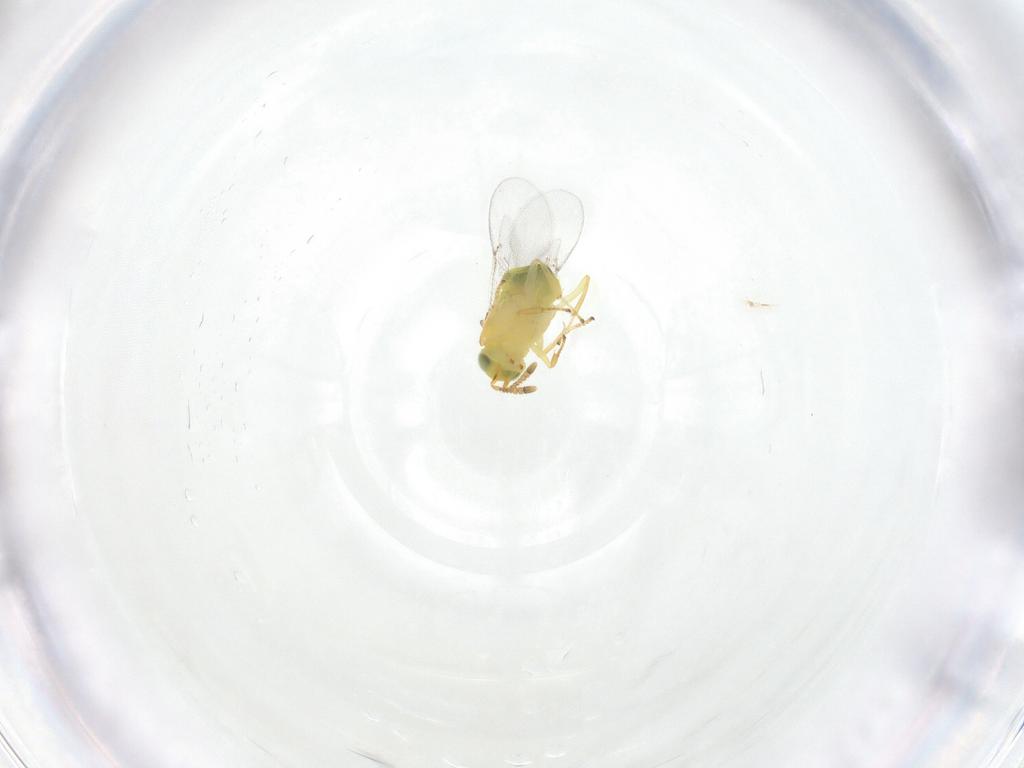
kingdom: Animalia
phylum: Arthropoda
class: Insecta
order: Hymenoptera
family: Encyrtidae
